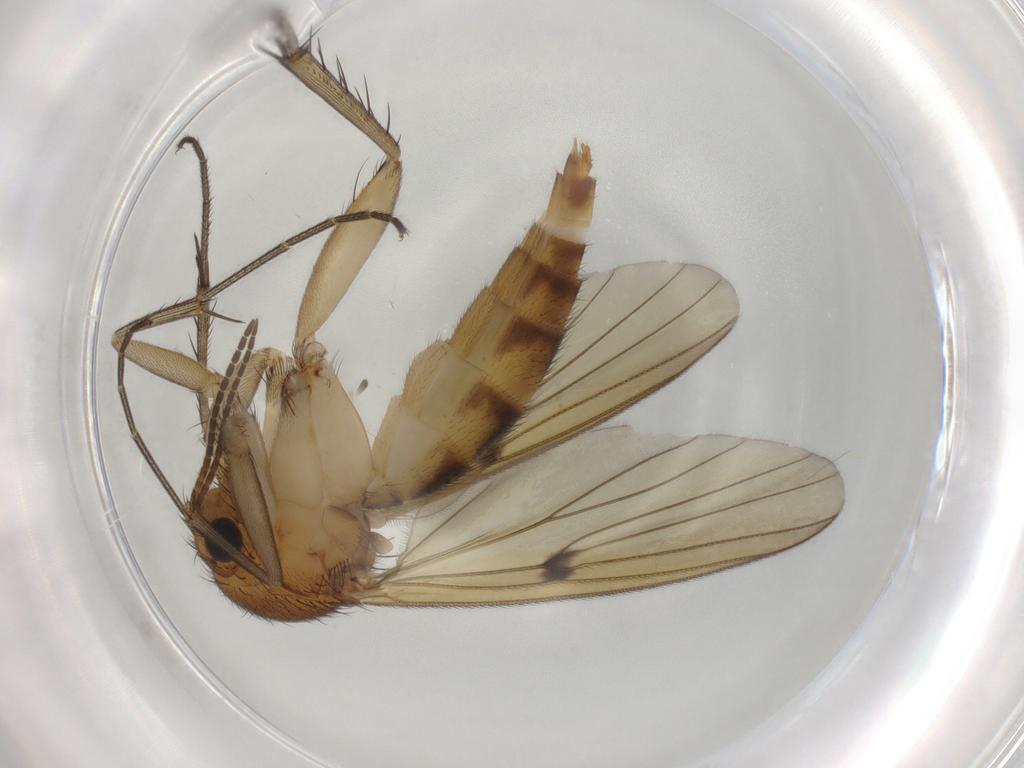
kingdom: Animalia
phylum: Arthropoda
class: Insecta
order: Diptera
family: Mycetophilidae
